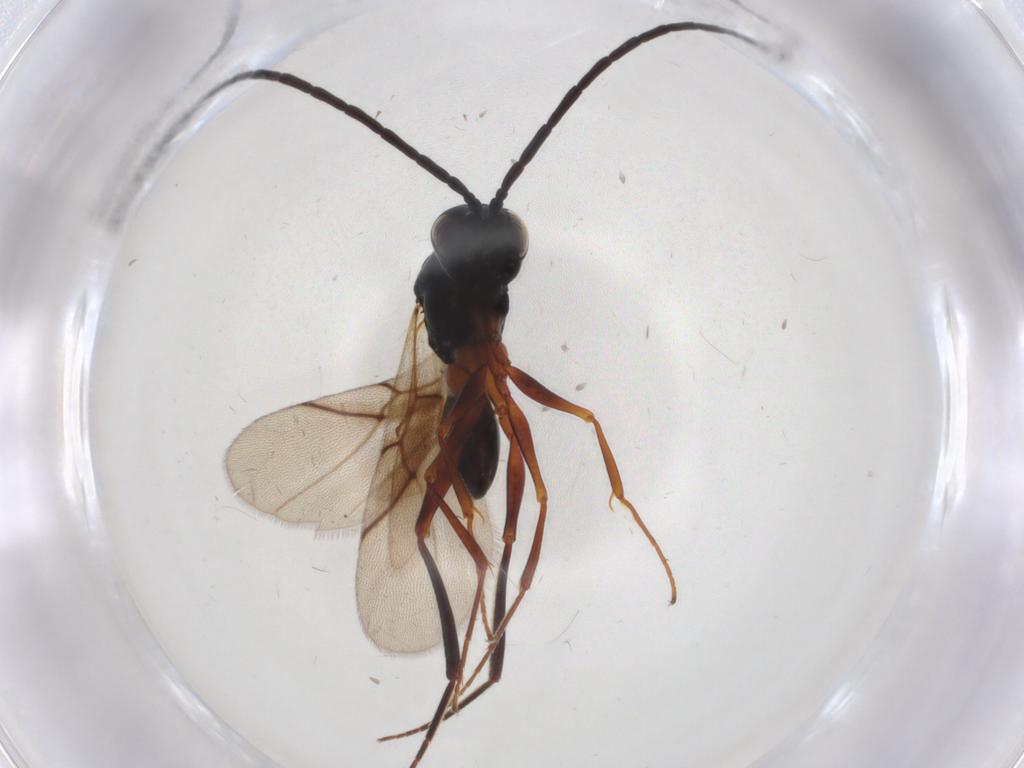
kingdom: Animalia
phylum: Arthropoda
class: Insecta
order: Hymenoptera
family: Figitidae
